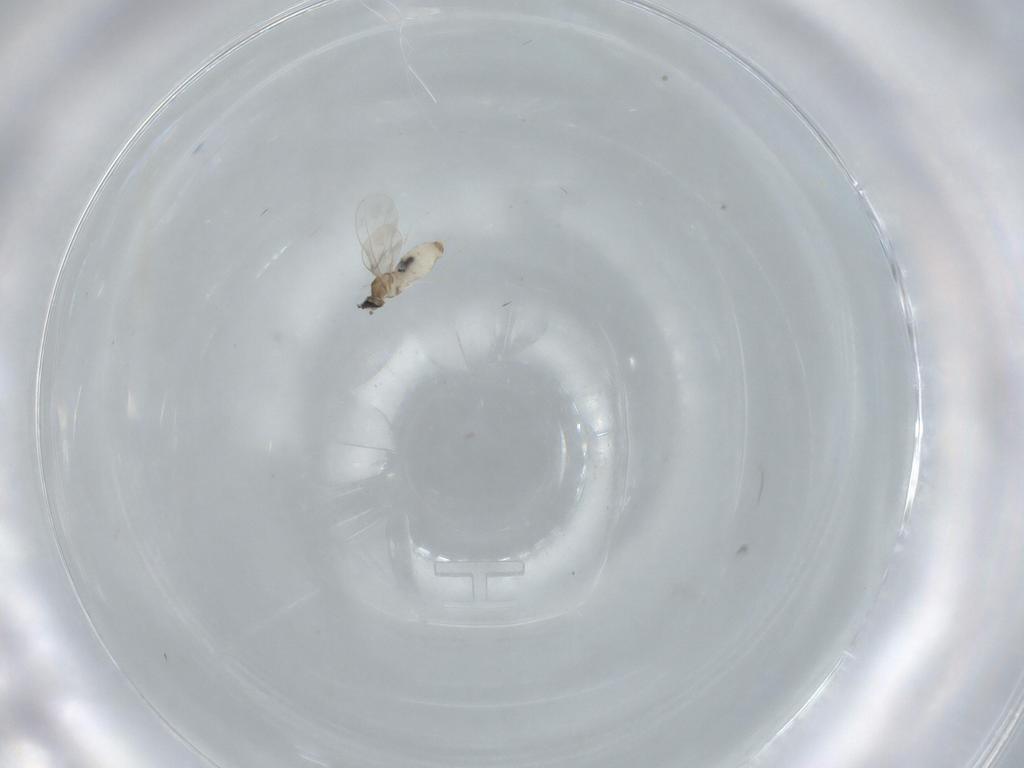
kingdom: Animalia
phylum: Arthropoda
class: Insecta
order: Diptera
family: Cecidomyiidae
